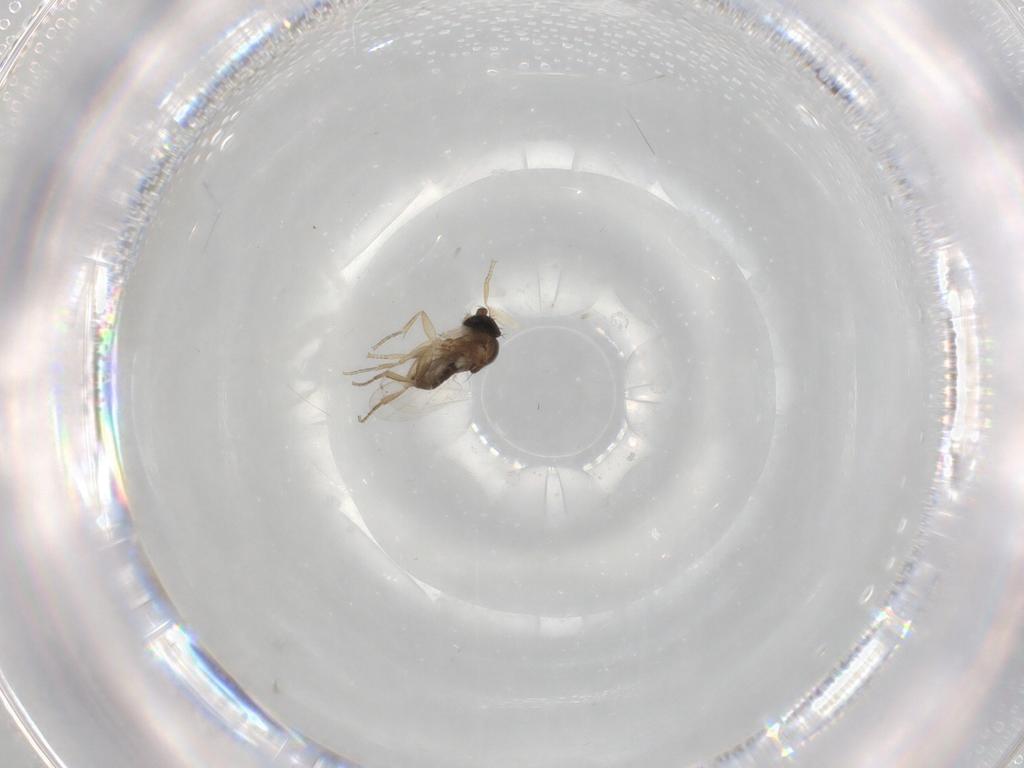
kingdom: Animalia
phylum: Arthropoda
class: Insecta
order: Diptera
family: Phoridae
